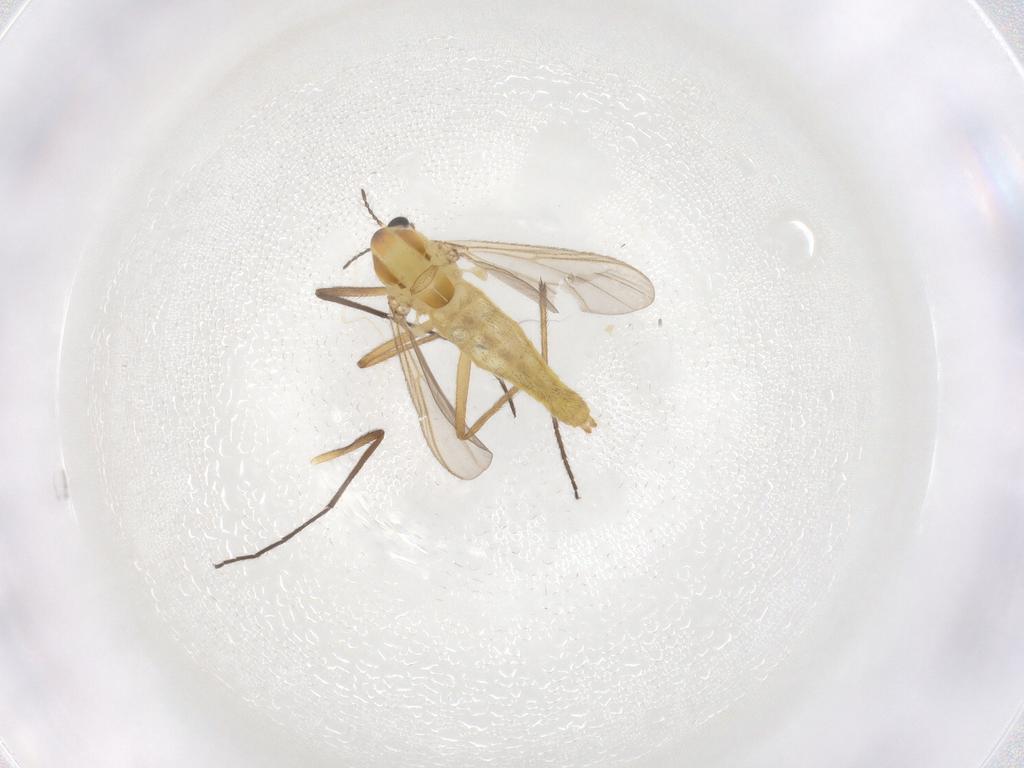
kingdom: Animalia
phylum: Arthropoda
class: Insecta
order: Diptera
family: Chironomidae
